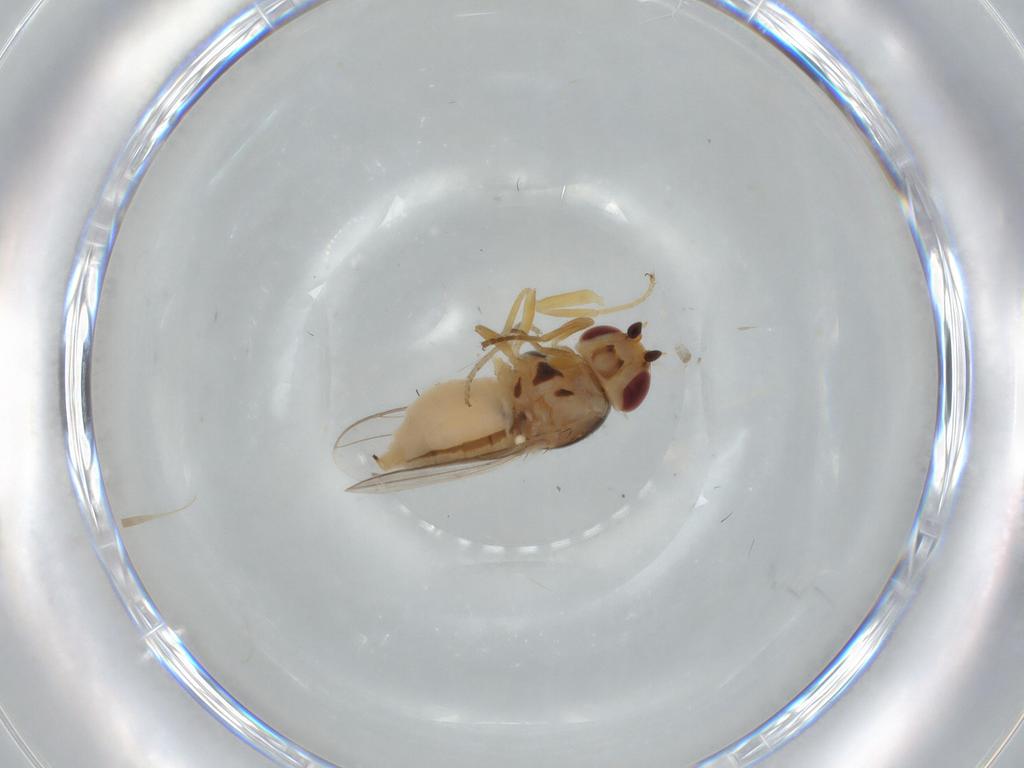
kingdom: Animalia
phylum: Arthropoda
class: Insecta
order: Diptera
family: Chloropidae
